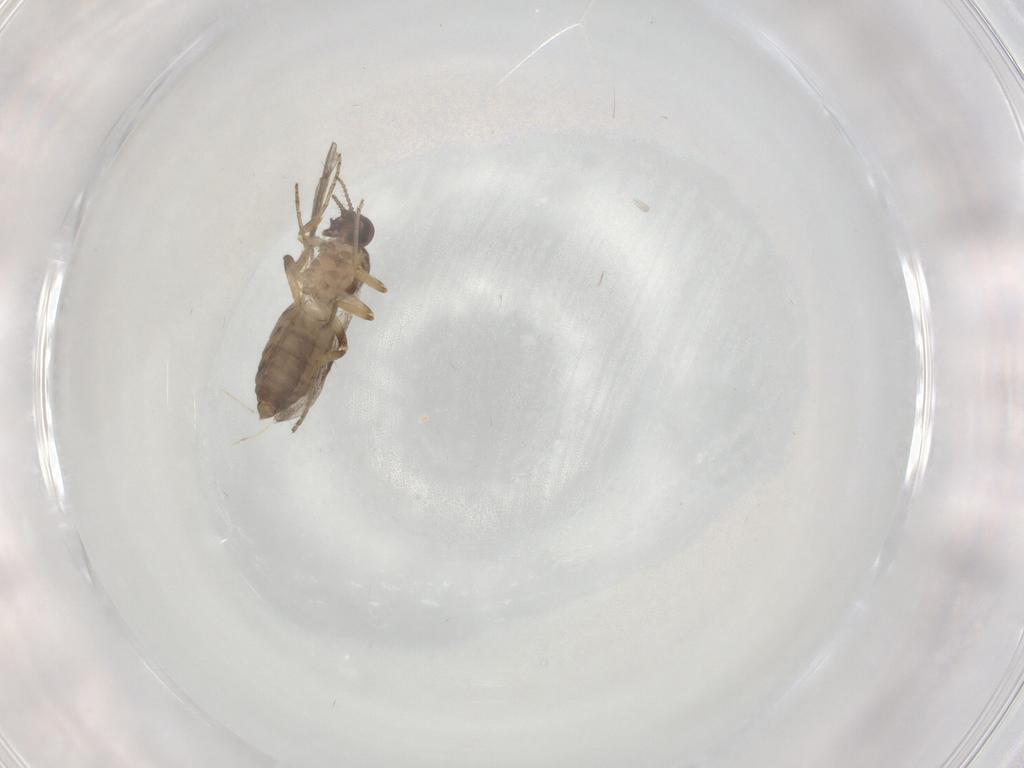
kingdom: Animalia
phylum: Arthropoda
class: Insecta
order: Diptera
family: Ceratopogonidae
